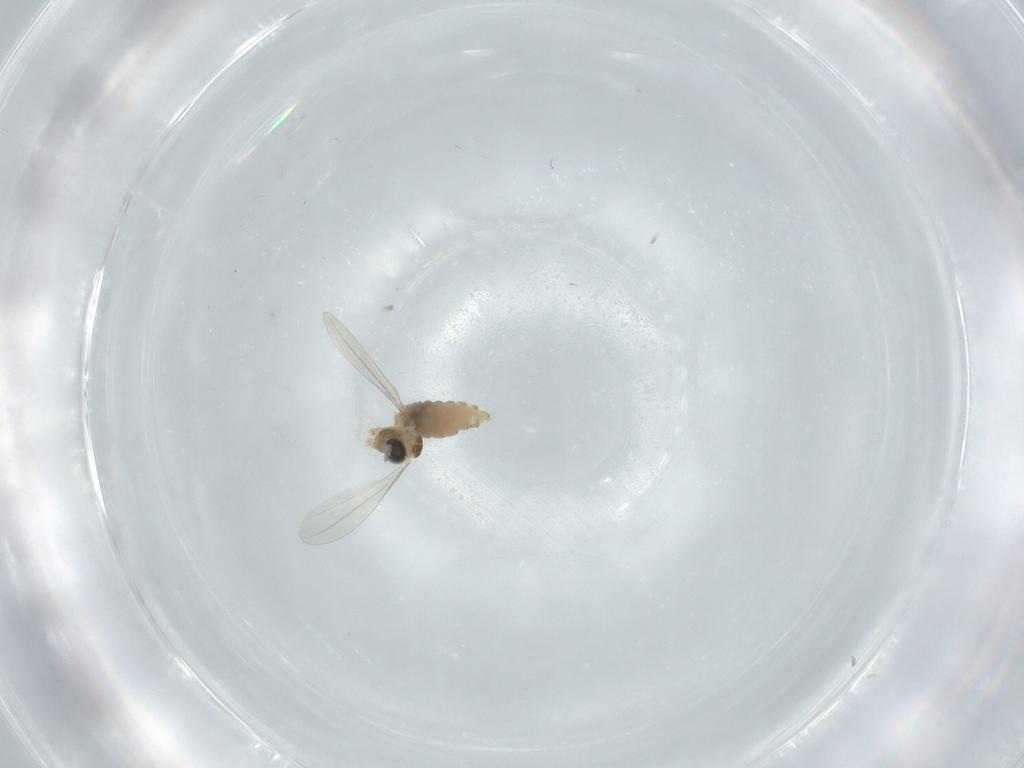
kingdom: Animalia
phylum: Arthropoda
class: Insecta
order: Diptera
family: Cecidomyiidae
